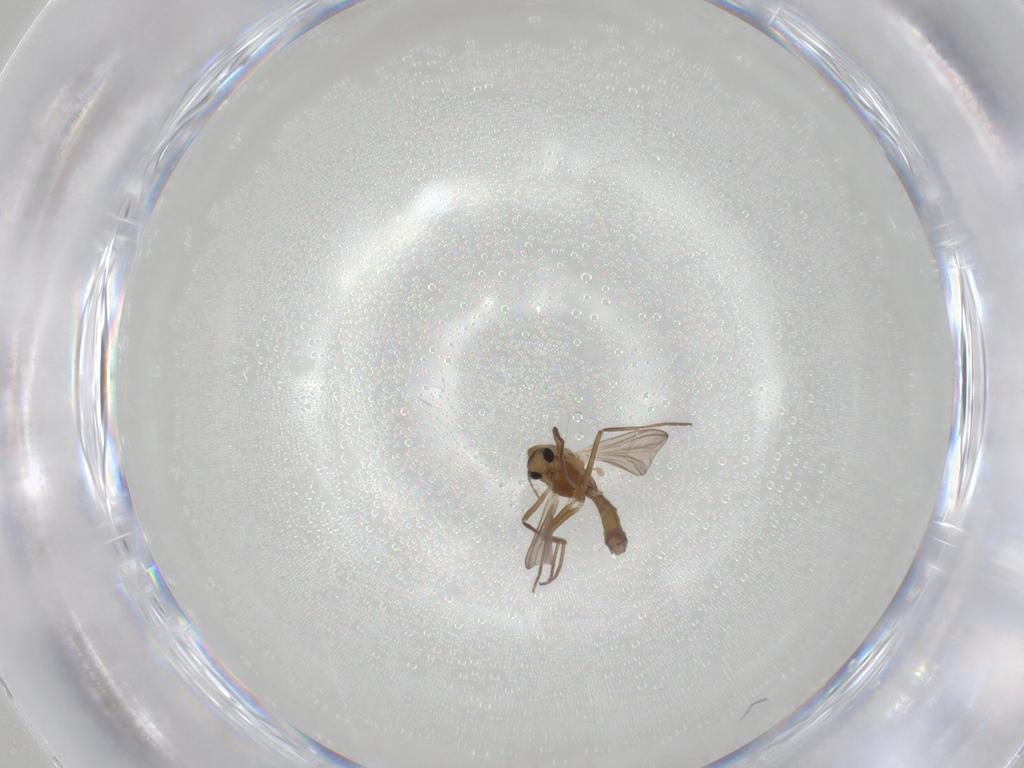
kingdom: Animalia
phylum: Arthropoda
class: Insecta
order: Diptera
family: Chironomidae
